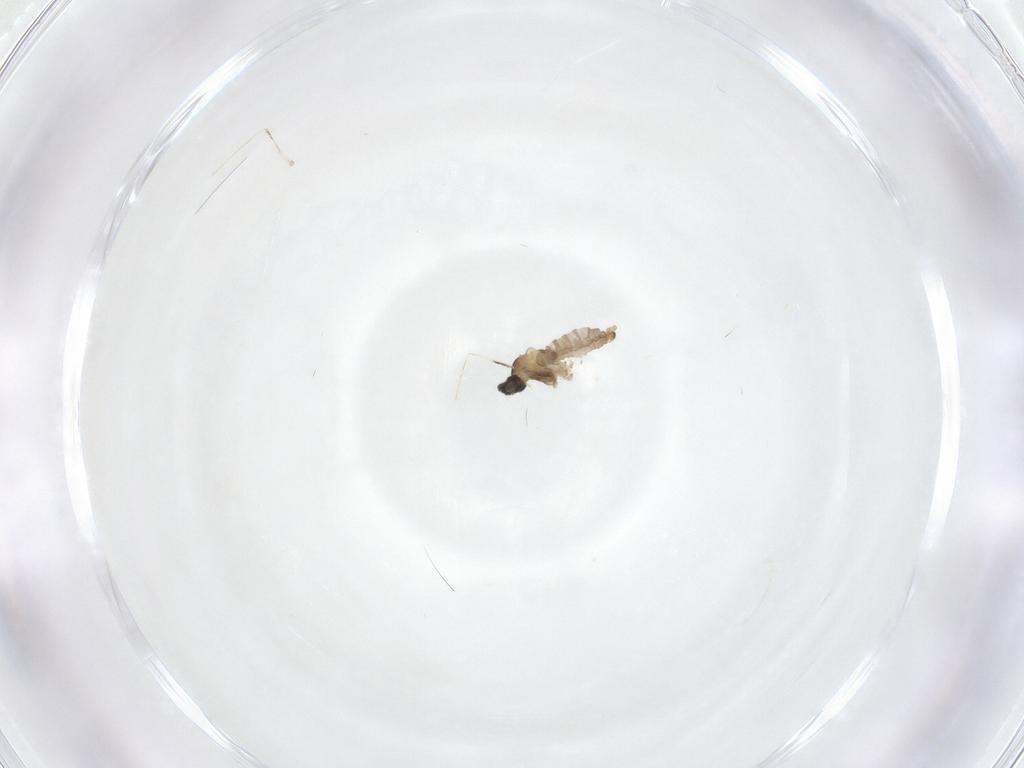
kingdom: Animalia
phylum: Arthropoda
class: Insecta
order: Diptera
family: Cecidomyiidae
